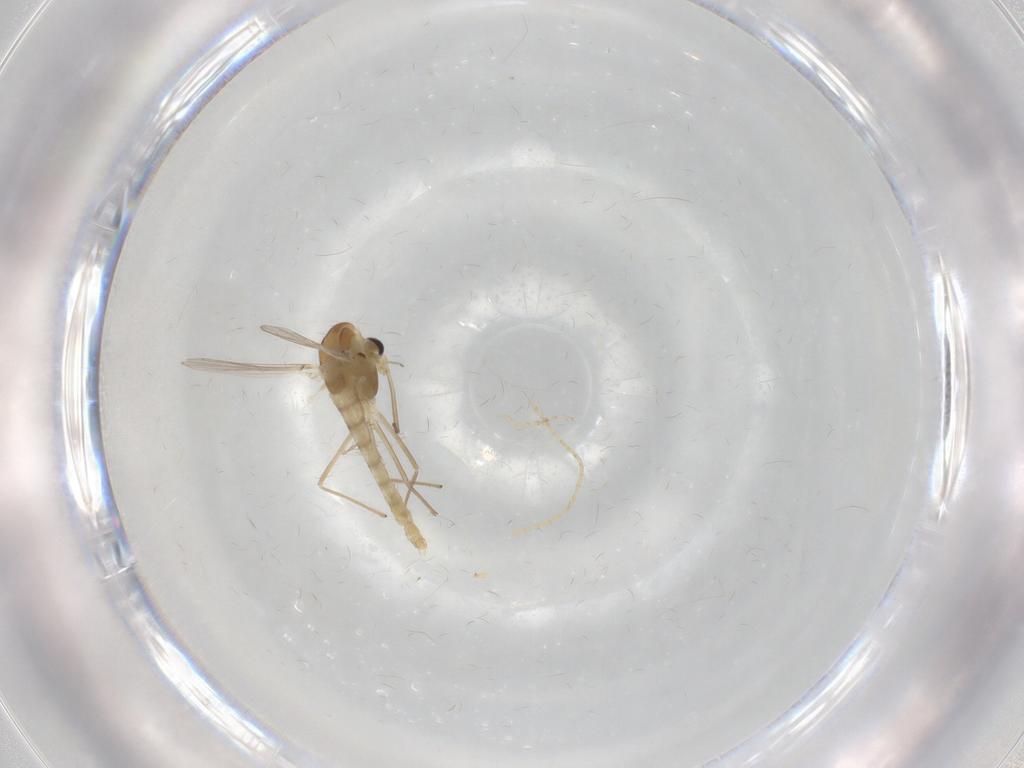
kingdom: Animalia
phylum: Arthropoda
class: Insecta
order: Diptera
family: Chironomidae
